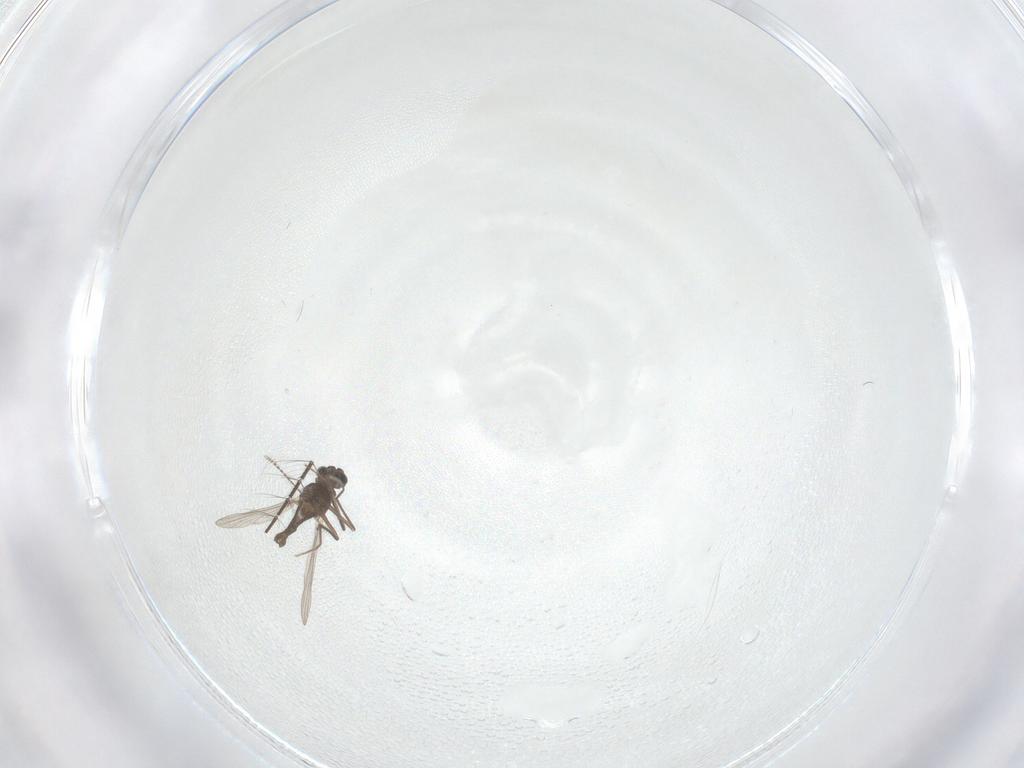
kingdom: Animalia
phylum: Arthropoda
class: Insecta
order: Diptera
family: Chironomidae
